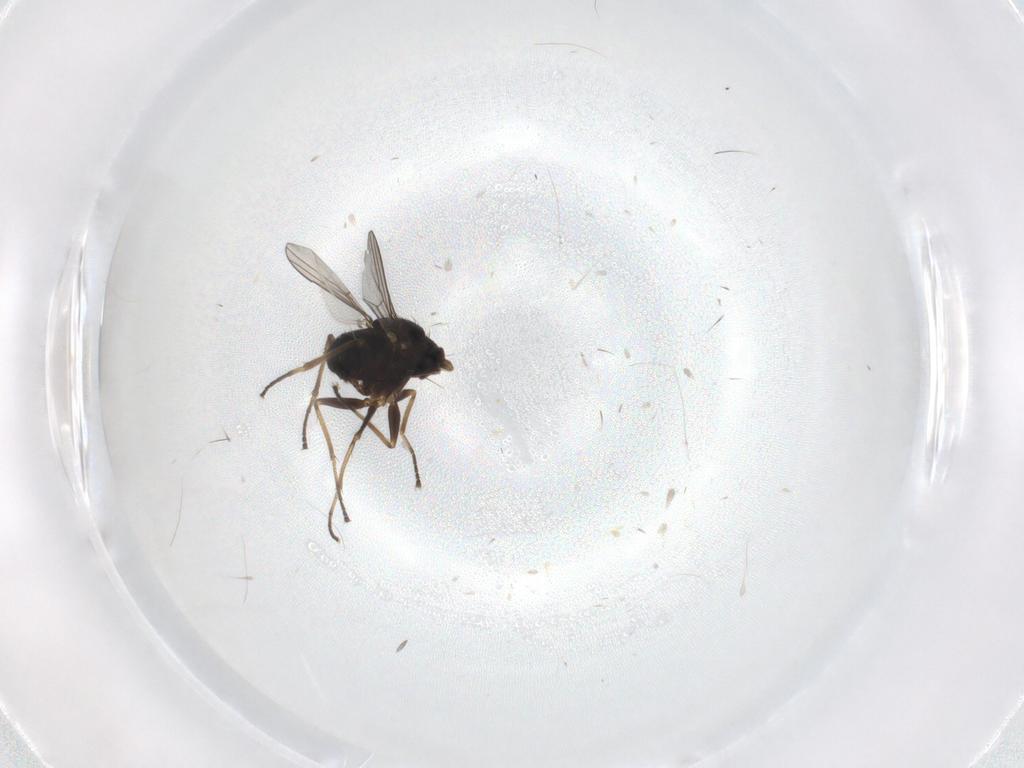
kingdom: Animalia
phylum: Arthropoda
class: Insecta
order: Diptera
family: Dolichopodidae
